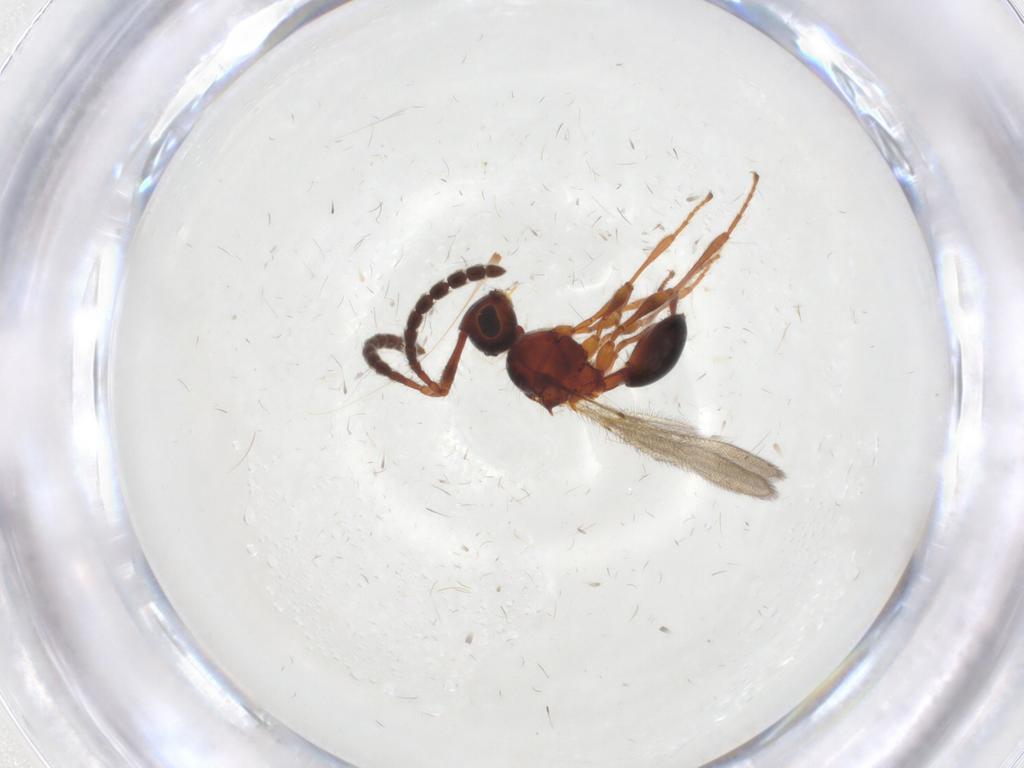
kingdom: Animalia
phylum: Arthropoda
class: Insecta
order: Hymenoptera
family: Diapriidae
